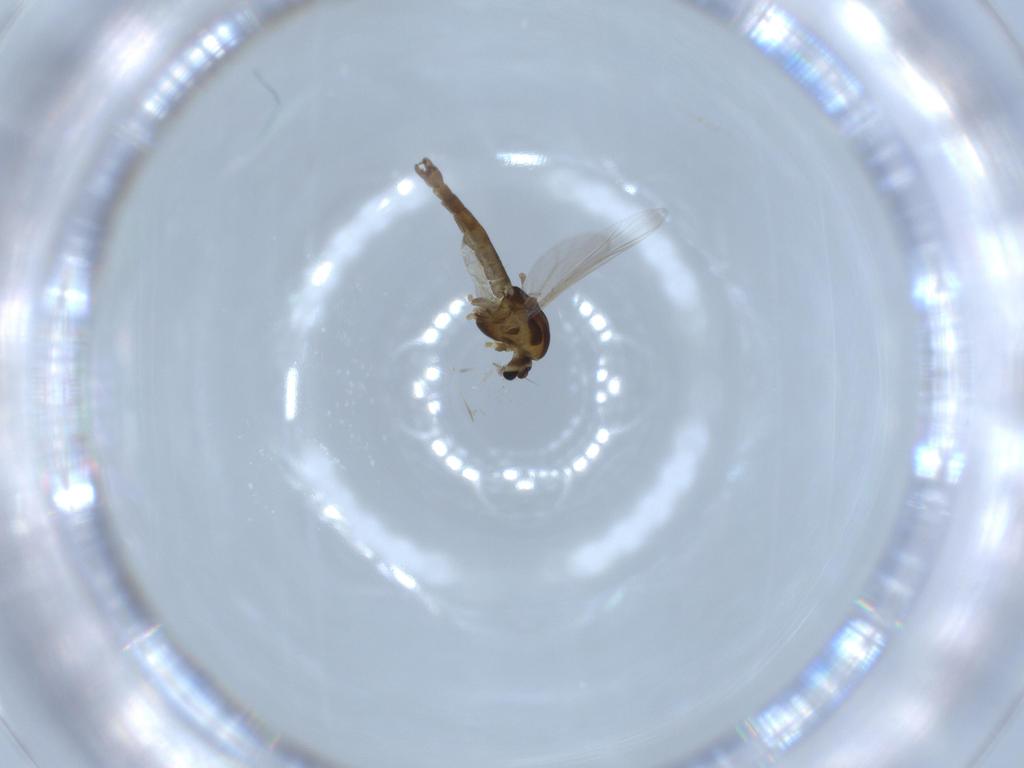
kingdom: Animalia
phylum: Arthropoda
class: Insecta
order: Diptera
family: Chironomidae
